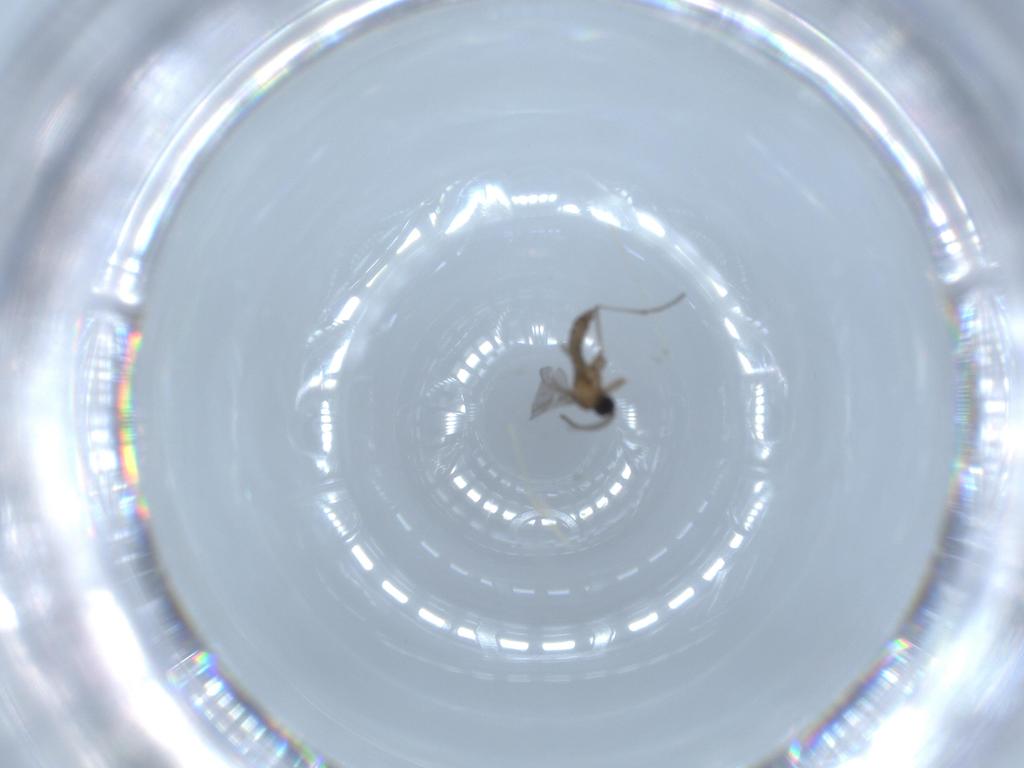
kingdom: Animalia
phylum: Arthropoda
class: Insecta
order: Diptera
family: Sciaridae
